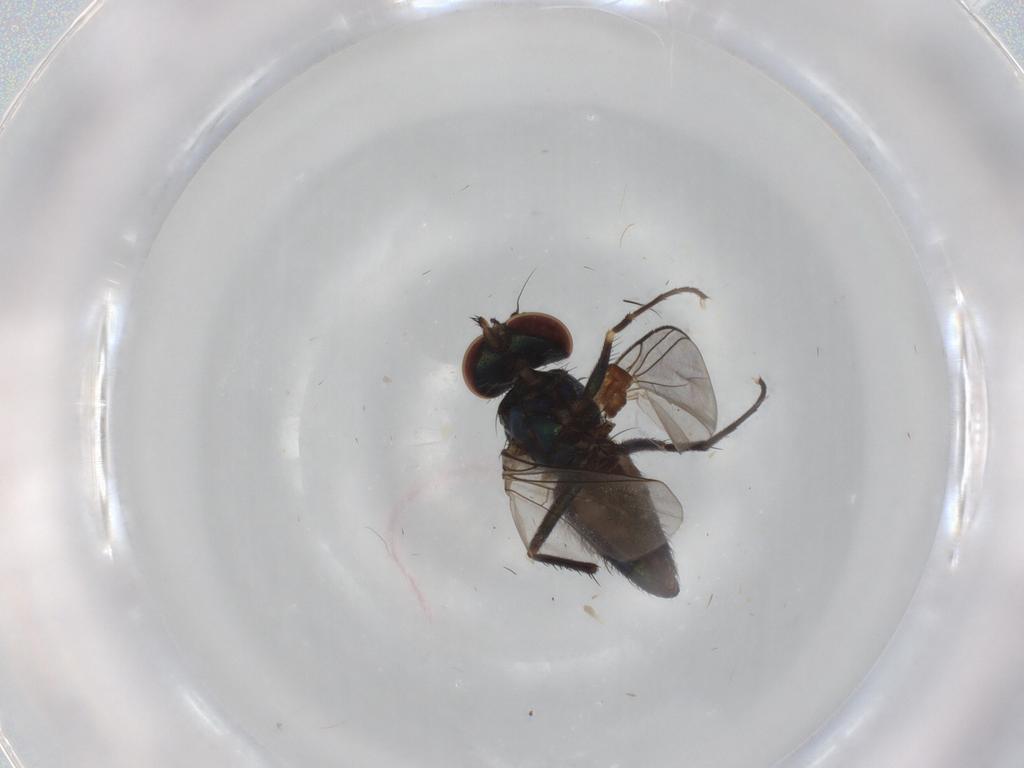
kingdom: Animalia
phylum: Arthropoda
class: Insecta
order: Diptera
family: Dolichopodidae
